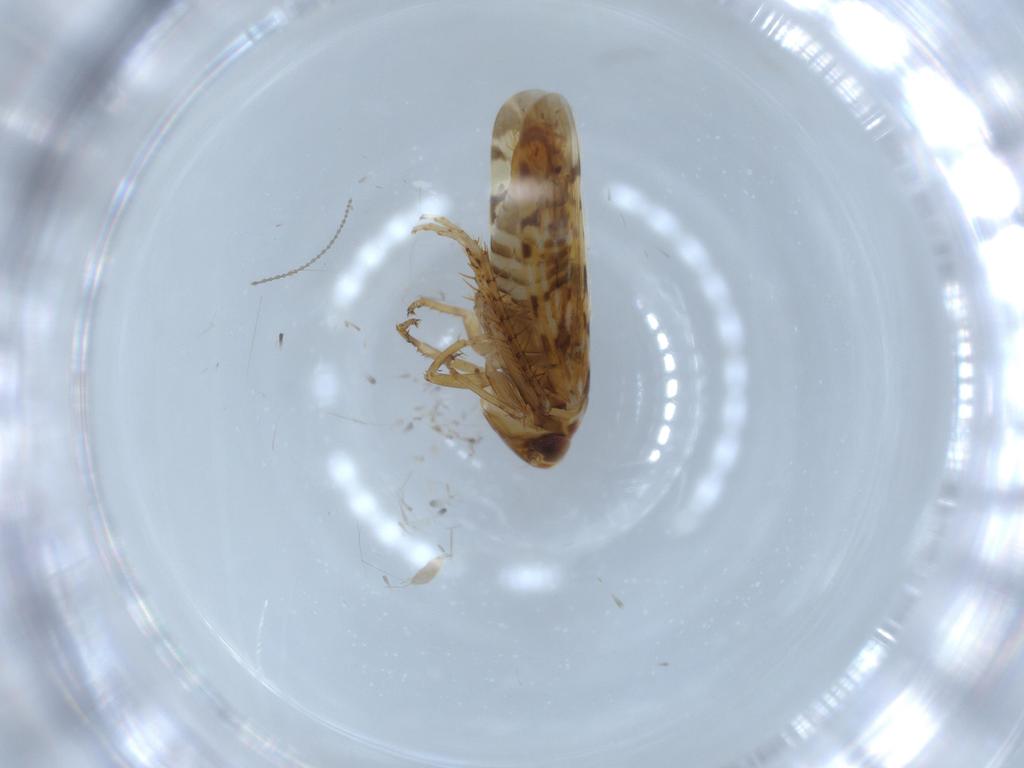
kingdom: Animalia
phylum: Arthropoda
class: Insecta
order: Hemiptera
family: Cicadellidae
